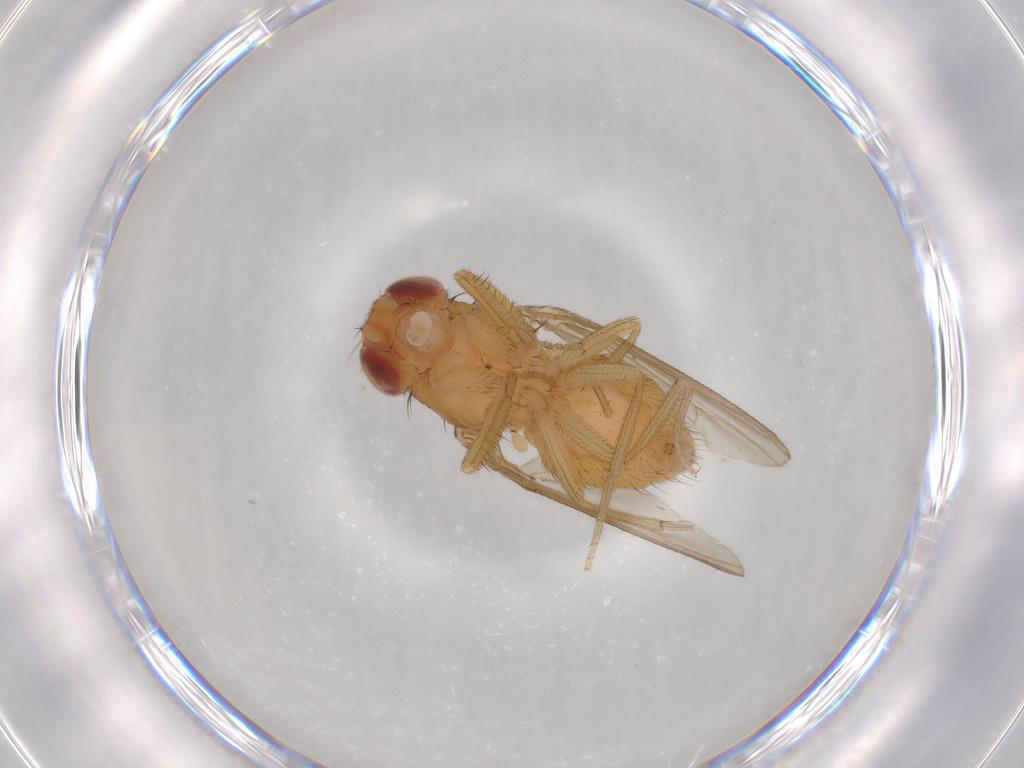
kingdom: Animalia
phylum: Arthropoda
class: Insecta
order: Diptera
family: Drosophilidae
